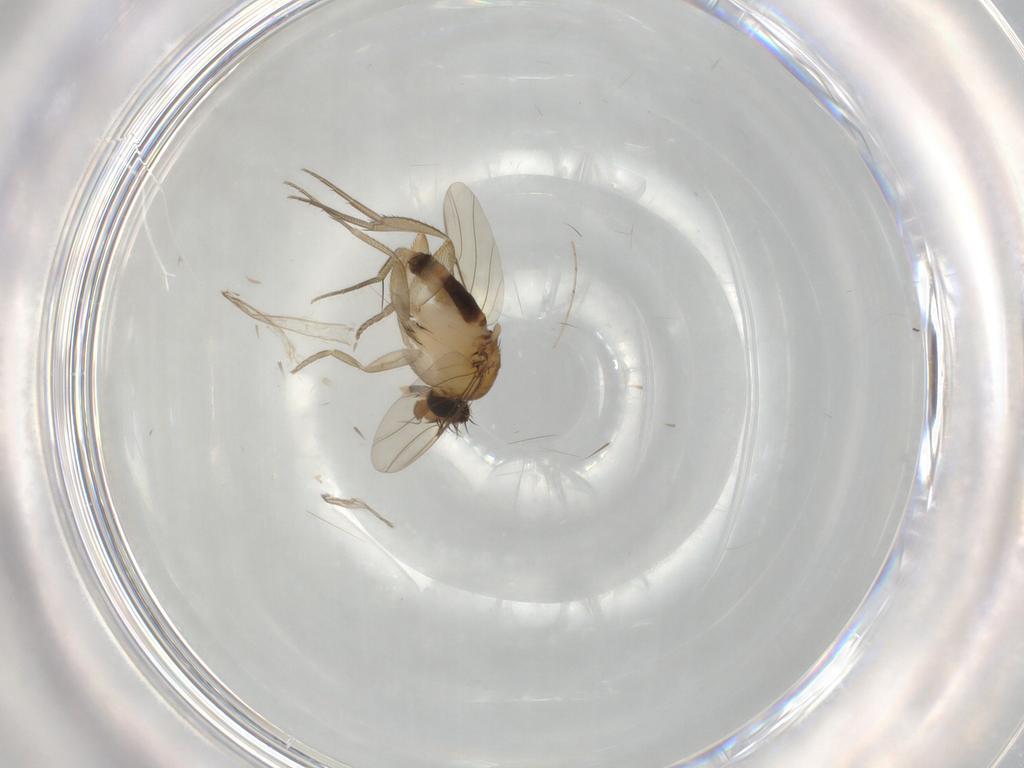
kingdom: Animalia
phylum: Arthropoda
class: Insecta
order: Diptera
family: Phoridae
